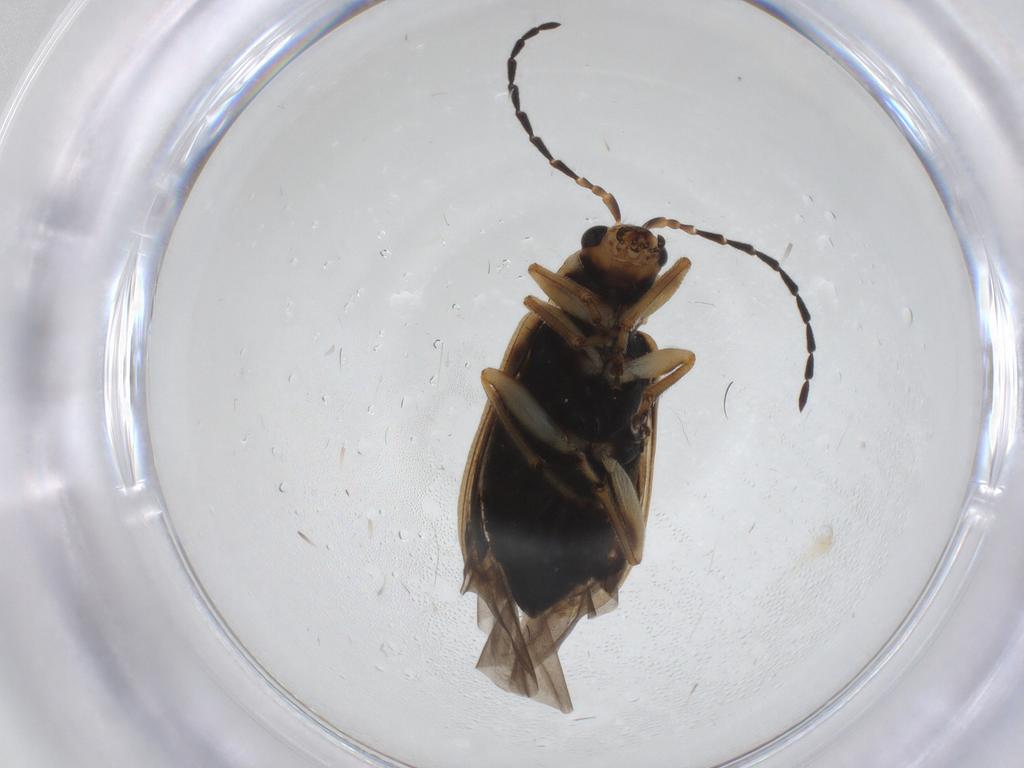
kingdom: Animalia
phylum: Arthropoda
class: Insecta
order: Coleoptera
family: Chrysomelidae
